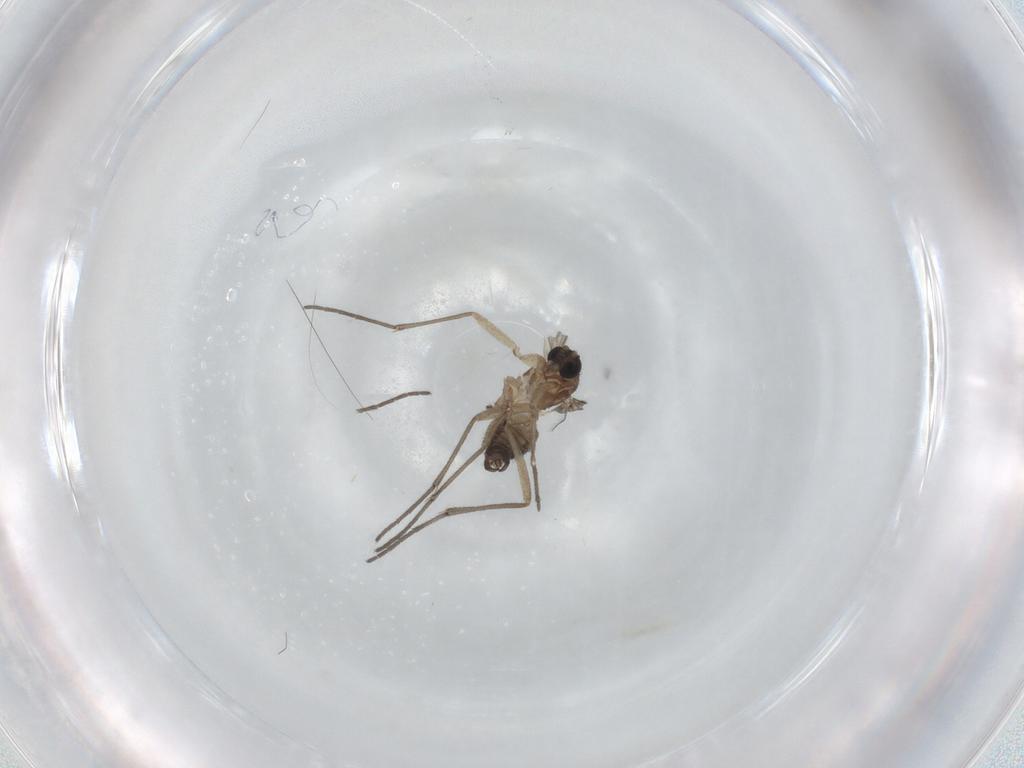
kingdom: Animalia
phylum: Arthropoda
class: Insecta
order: Diptera
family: Sciaridae
